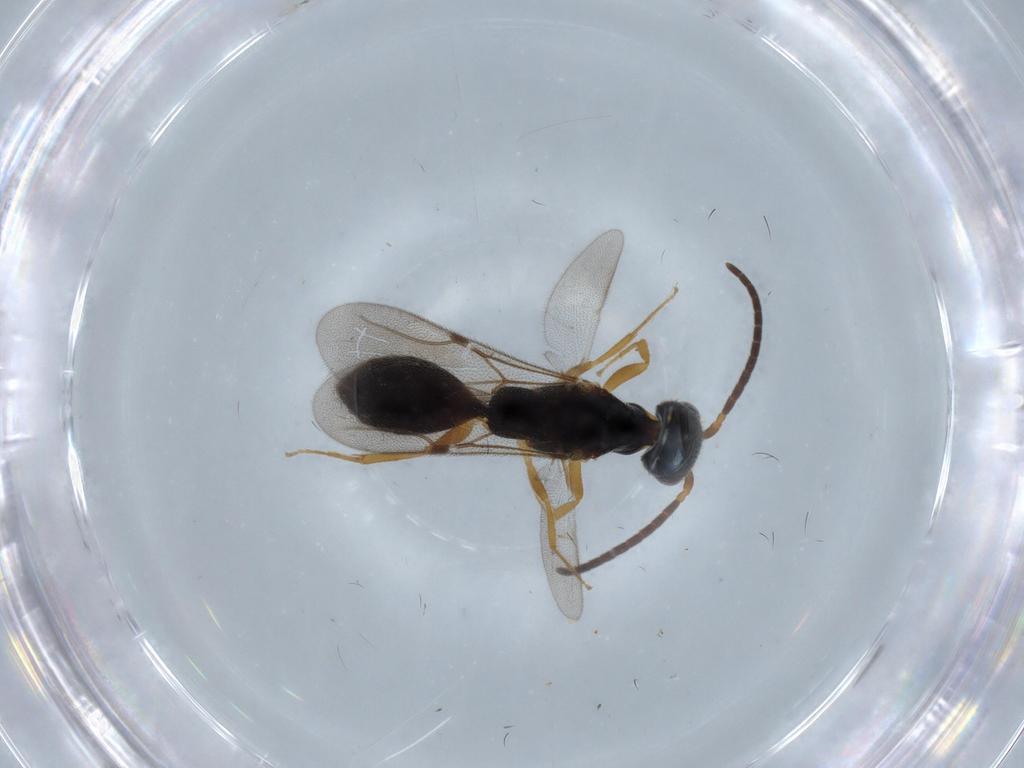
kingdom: Animalia
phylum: Arthropoda
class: Insecta
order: Hymenoptera
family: Bethylidae
